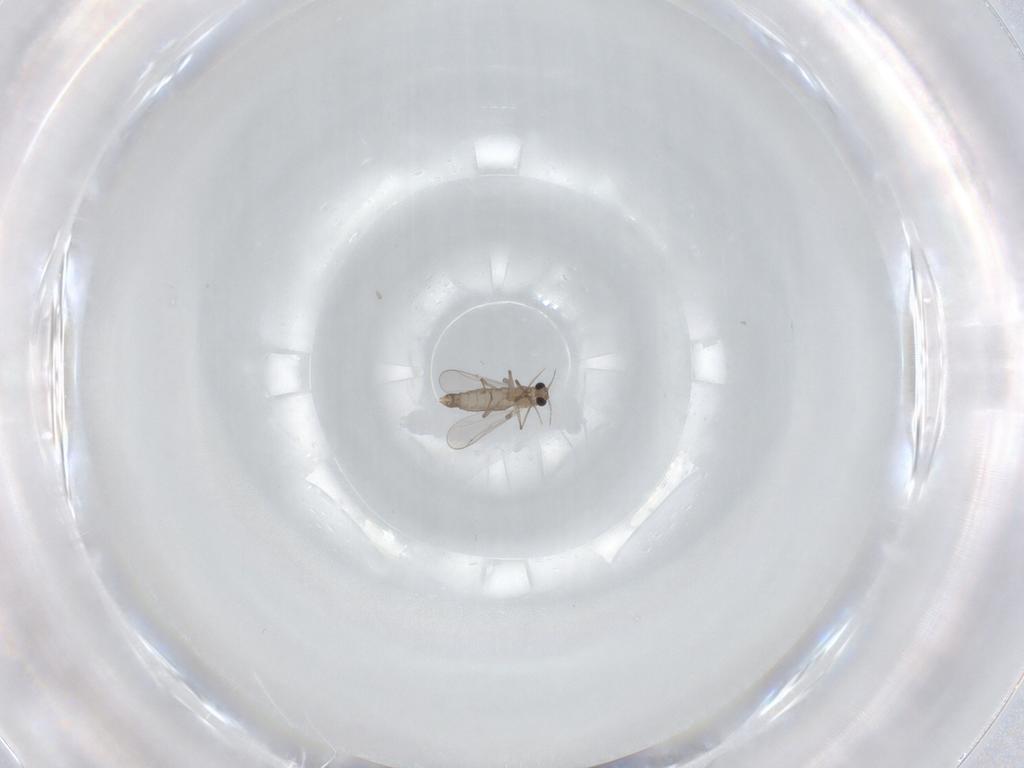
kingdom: Animalia
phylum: Arthropoda
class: Insecta
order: Diptera
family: Chironomidae
